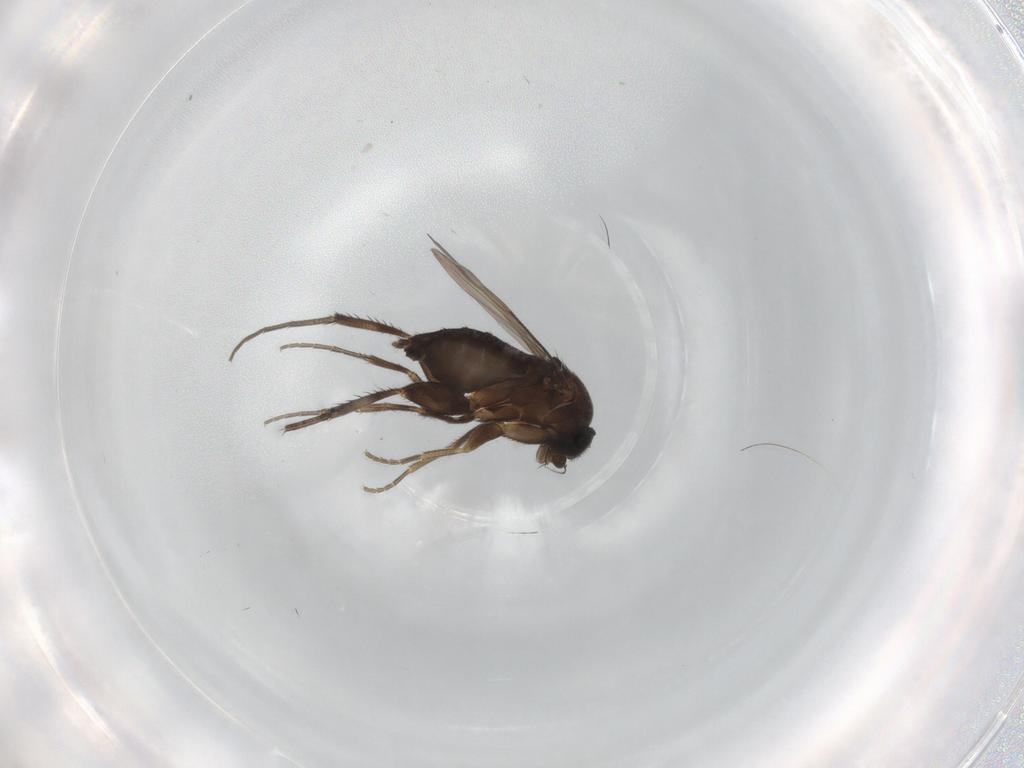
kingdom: Animalia
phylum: Arthropoda
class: Insecta
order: Diptera
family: Phoridae
